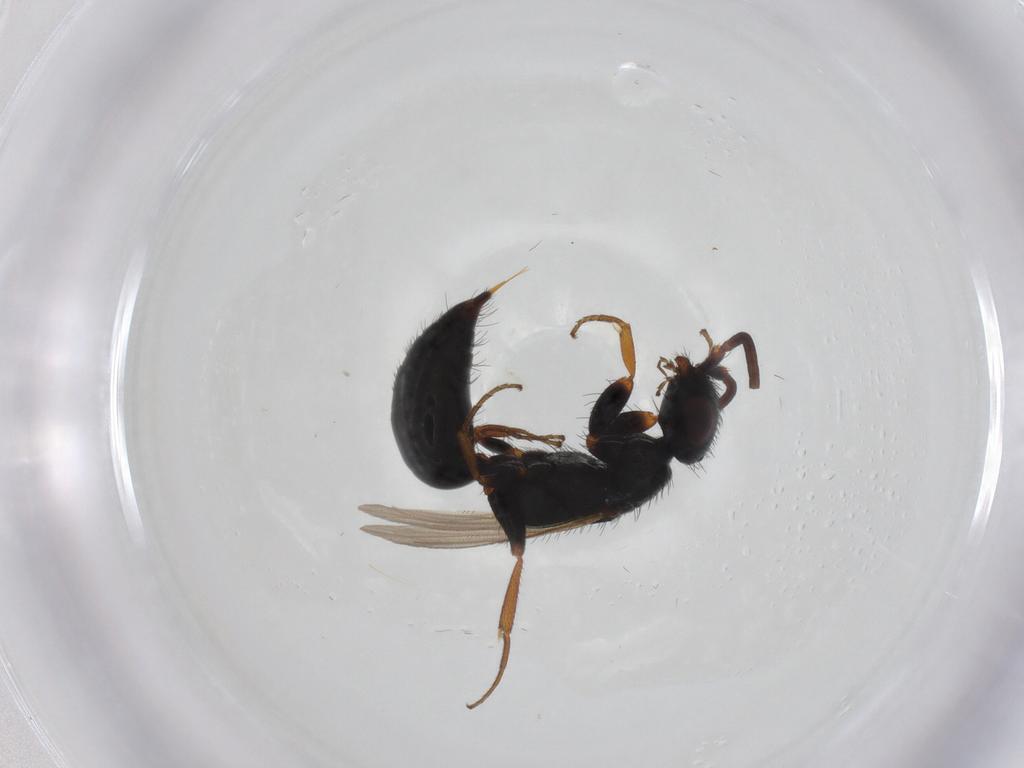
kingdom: Animalia
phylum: Arthropoda
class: Insecta
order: Hymenoptera
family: Bethylidae
